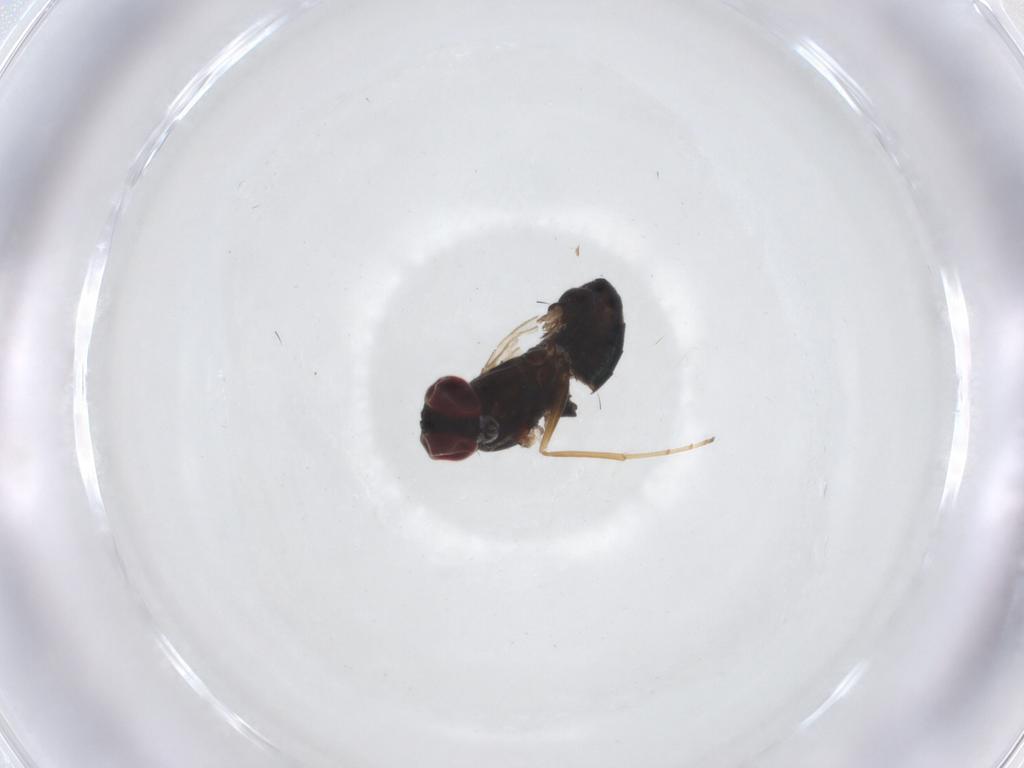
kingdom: Animalia
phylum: Arthropoda
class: Insecta
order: Diptera
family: Dolichopodidae
